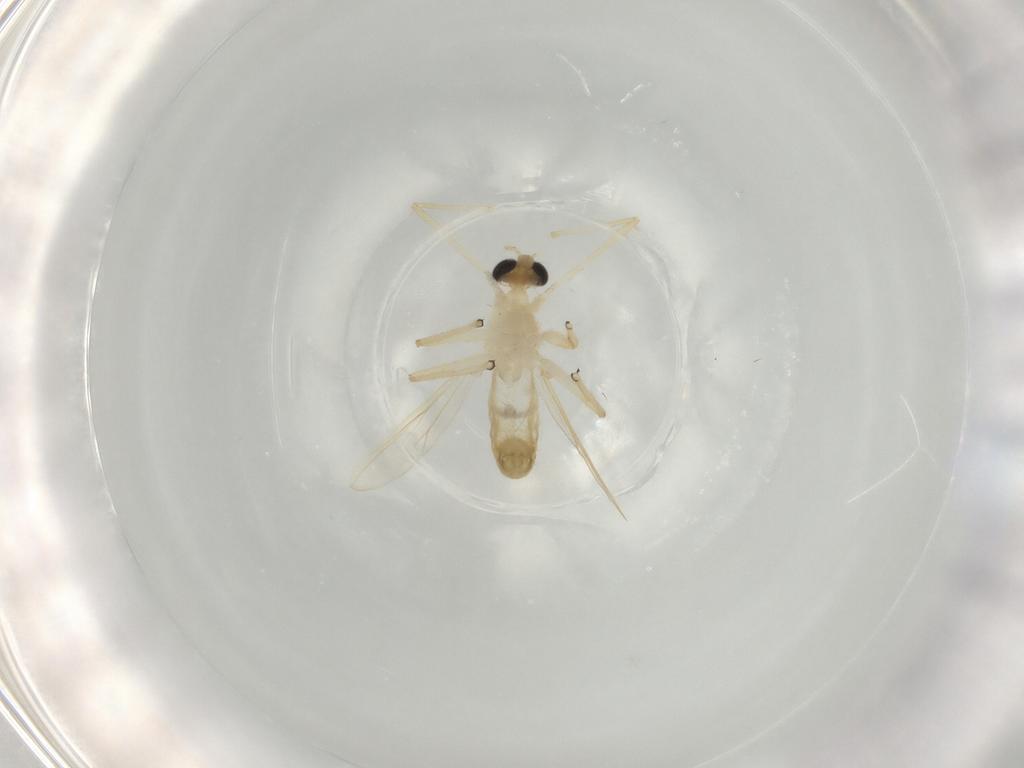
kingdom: Animalia
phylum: Arthropoda
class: Insecta
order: Diptera
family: Chironomidae
